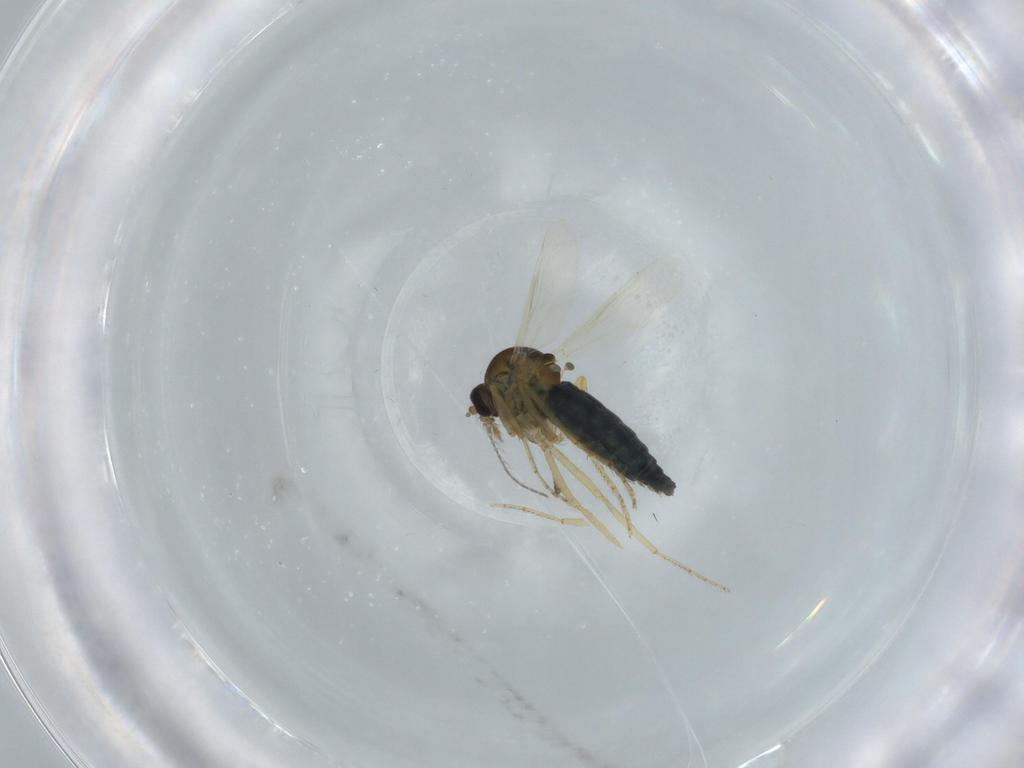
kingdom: Animalia
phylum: Arthropoda
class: Insecta
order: Diptera
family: Ceratopogonidae
